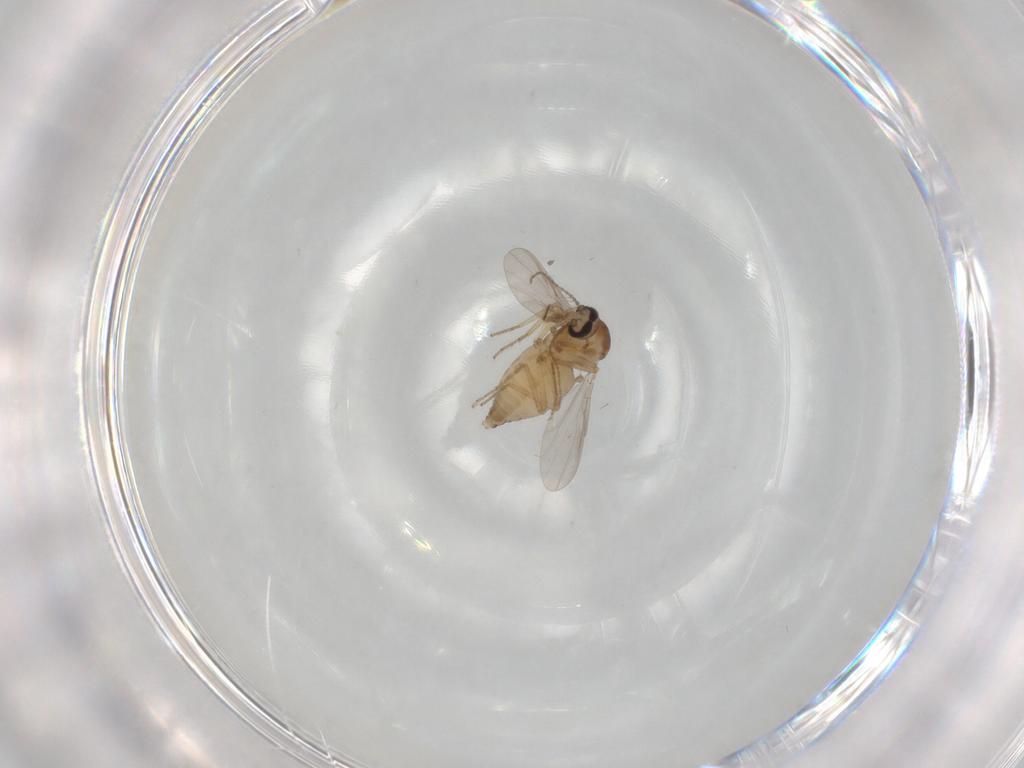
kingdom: Animalia
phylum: Arthropoda
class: Insecta
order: Diptera
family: Ceratopogonidae
